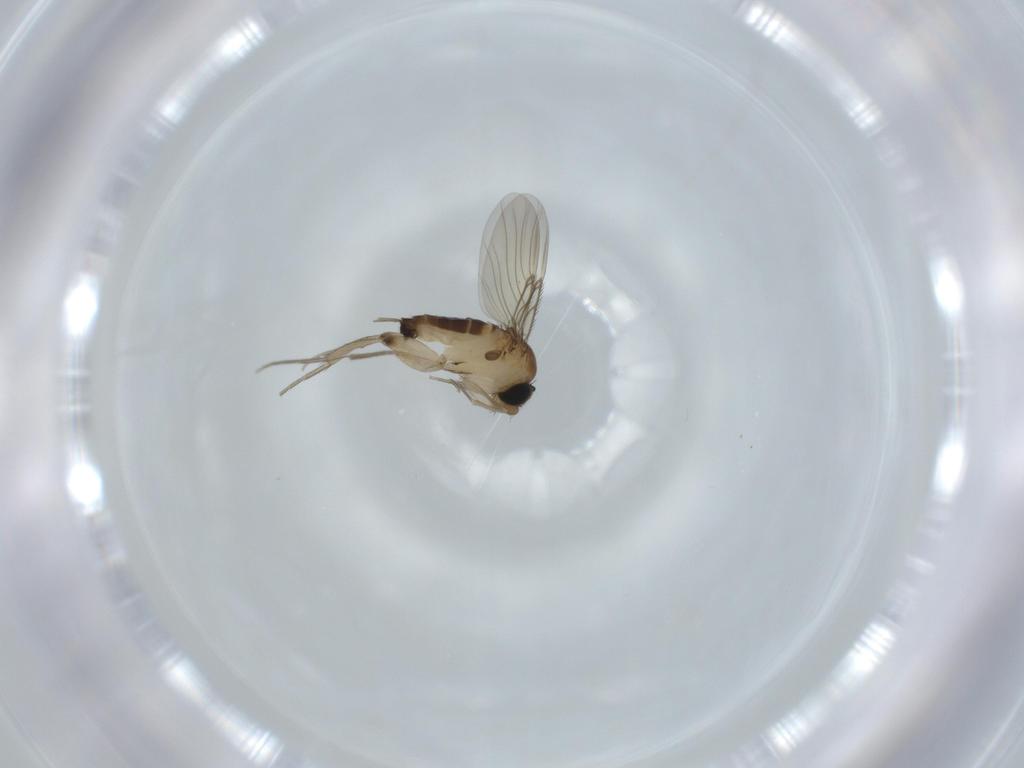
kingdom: Animalia
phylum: Arthropoda
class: Insecta
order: Diptera
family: Phoridae
